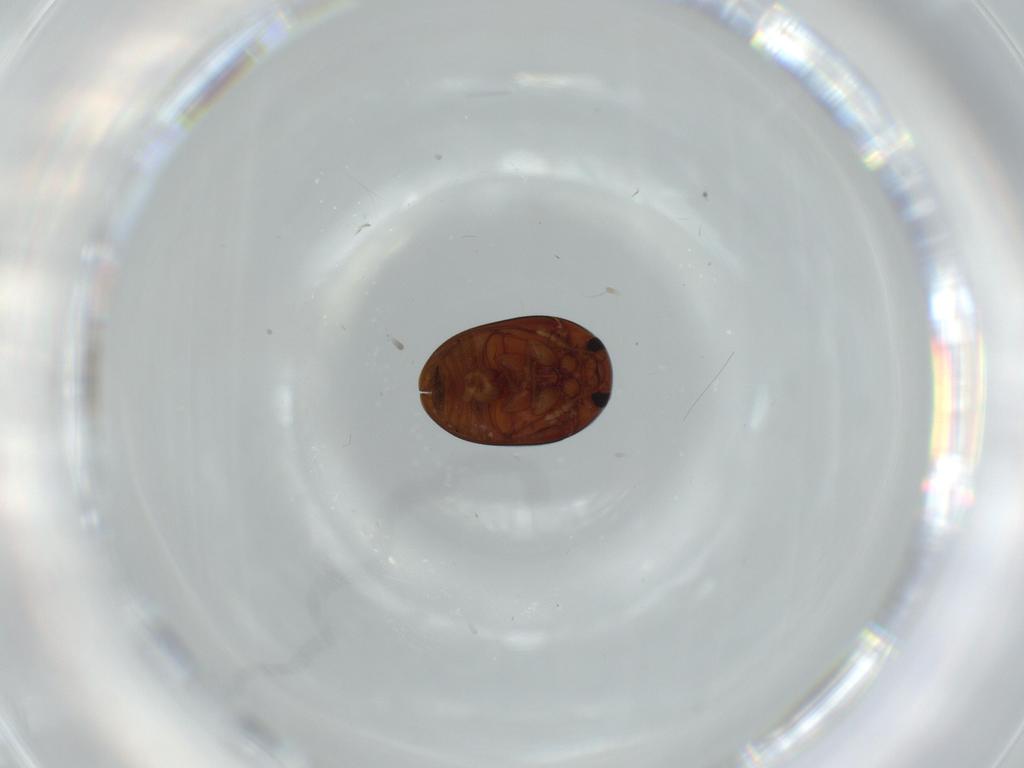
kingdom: Animalia
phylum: Arthropoda
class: Insecta
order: Coleoptera
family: Phalacridae
